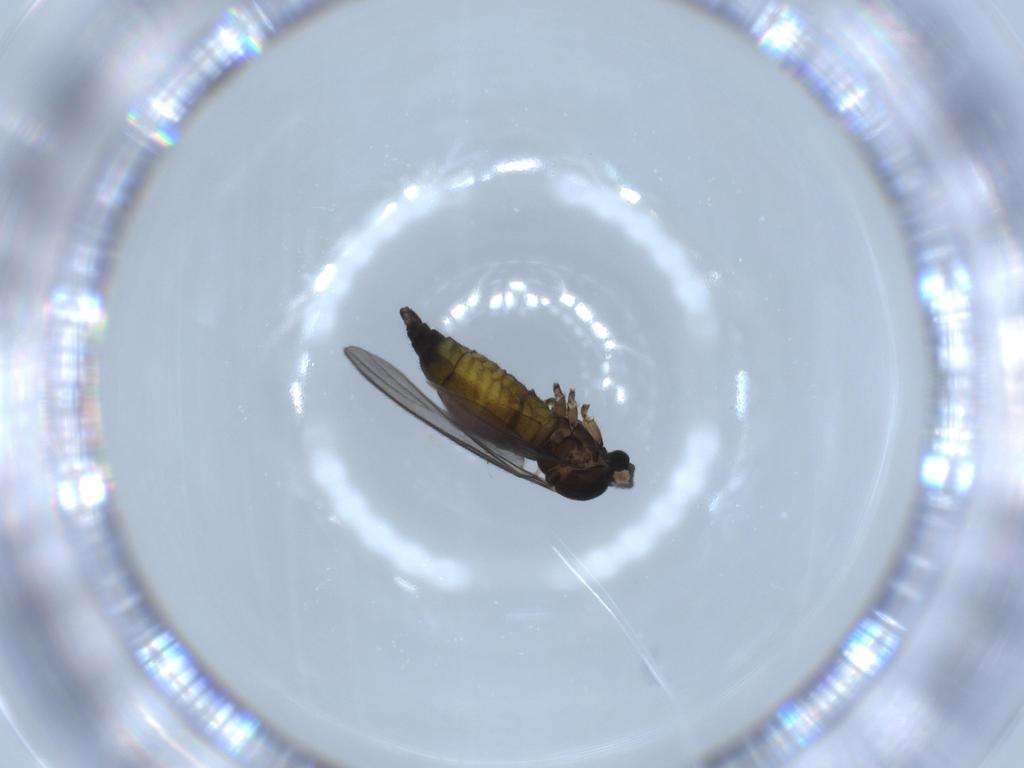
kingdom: Animalia
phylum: Arthropoda
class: Insecta
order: Diptera
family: Sciaridae
